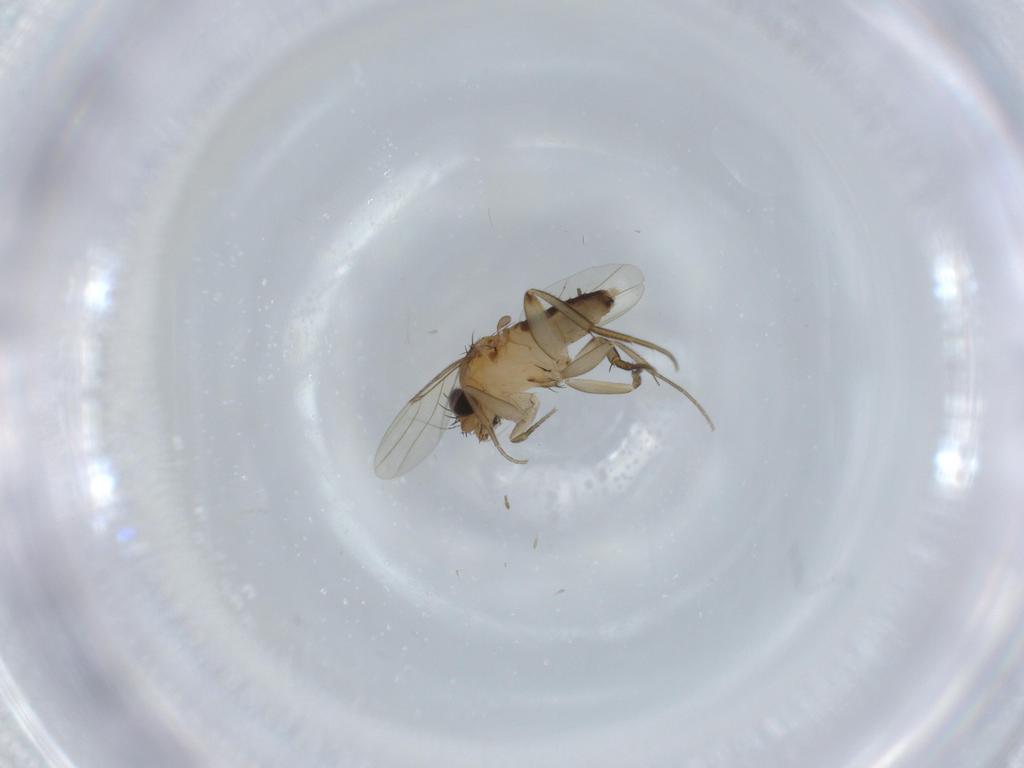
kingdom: Animalia
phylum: Arthropoda
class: Insecta
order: Diptera
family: Phoridae
